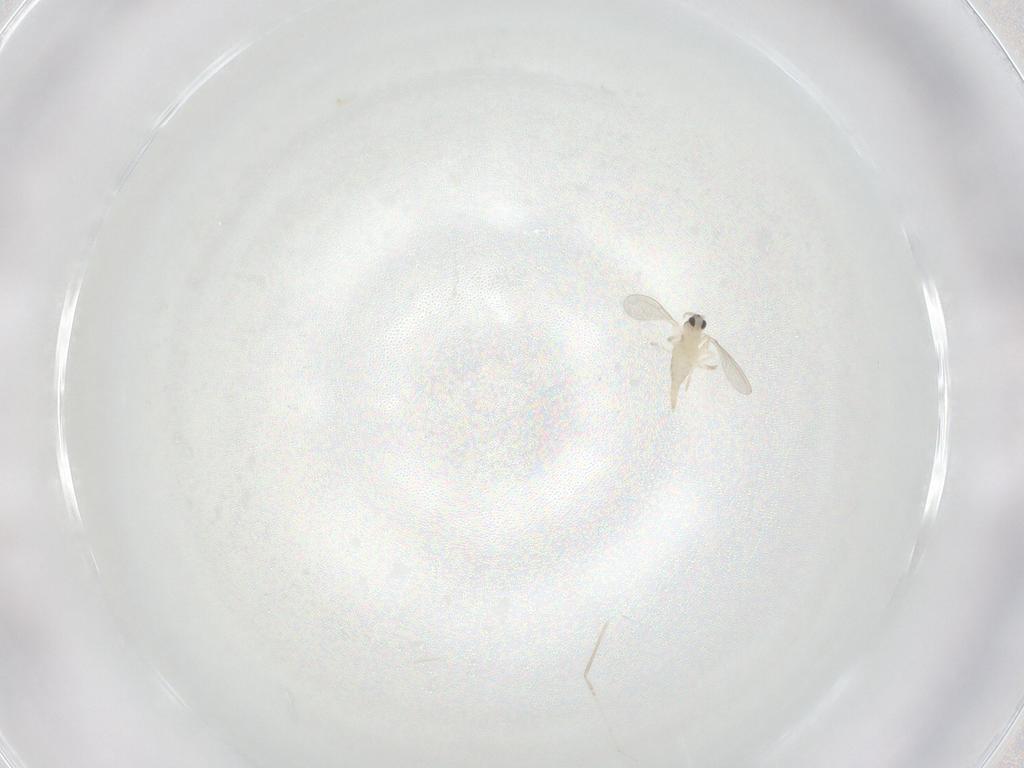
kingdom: Animalia
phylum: Arthropoda
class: Insecta
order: Diptera
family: Cecidomyiidae
